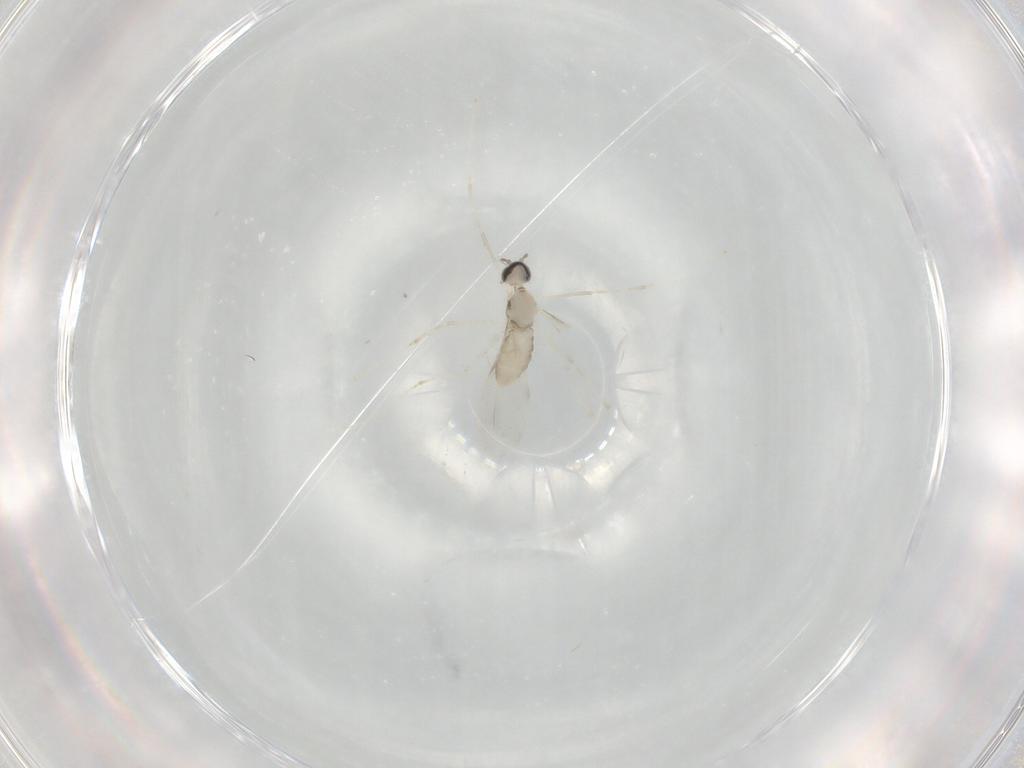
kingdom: Animalia
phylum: Arthropoda
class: Insecta
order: Diptera
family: Cecidomyiidae
